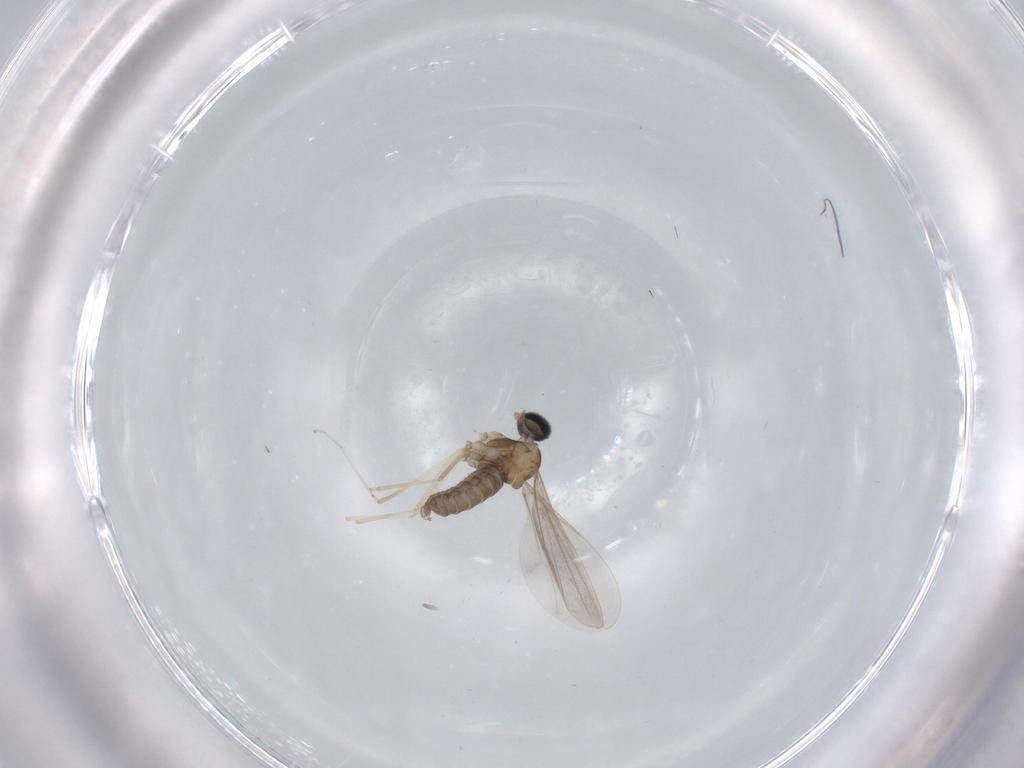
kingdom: Animalia
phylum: Arthropoda
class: Insecta
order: Diptera
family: Cecidomyiidae
